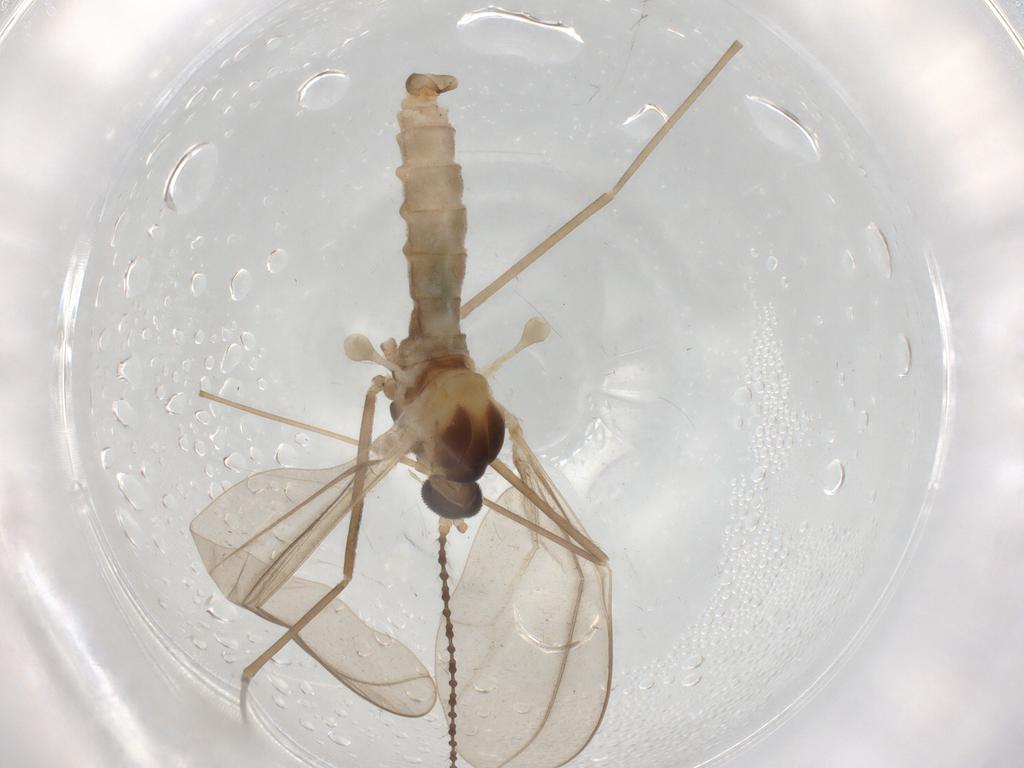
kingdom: Animalia
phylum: Arthropoda
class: Insecta
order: Diptera
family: Cecidomyiidae
